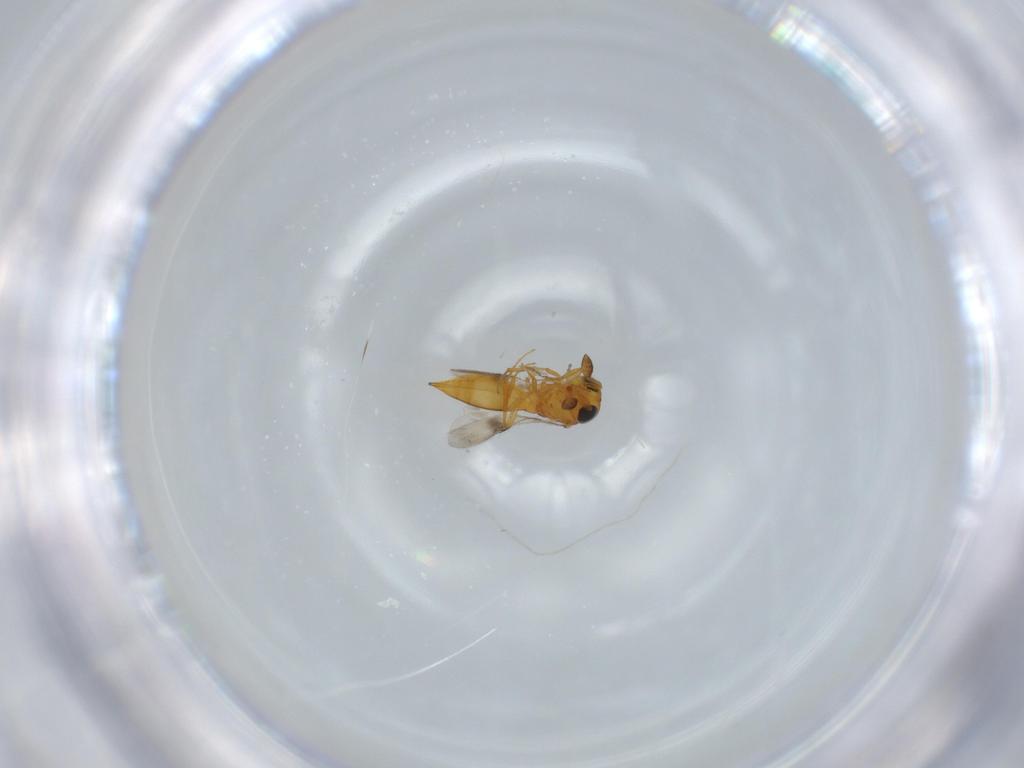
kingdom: Animalia
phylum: Arthropoda
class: Insecta
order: Hymenoptera
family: Scelionidae
